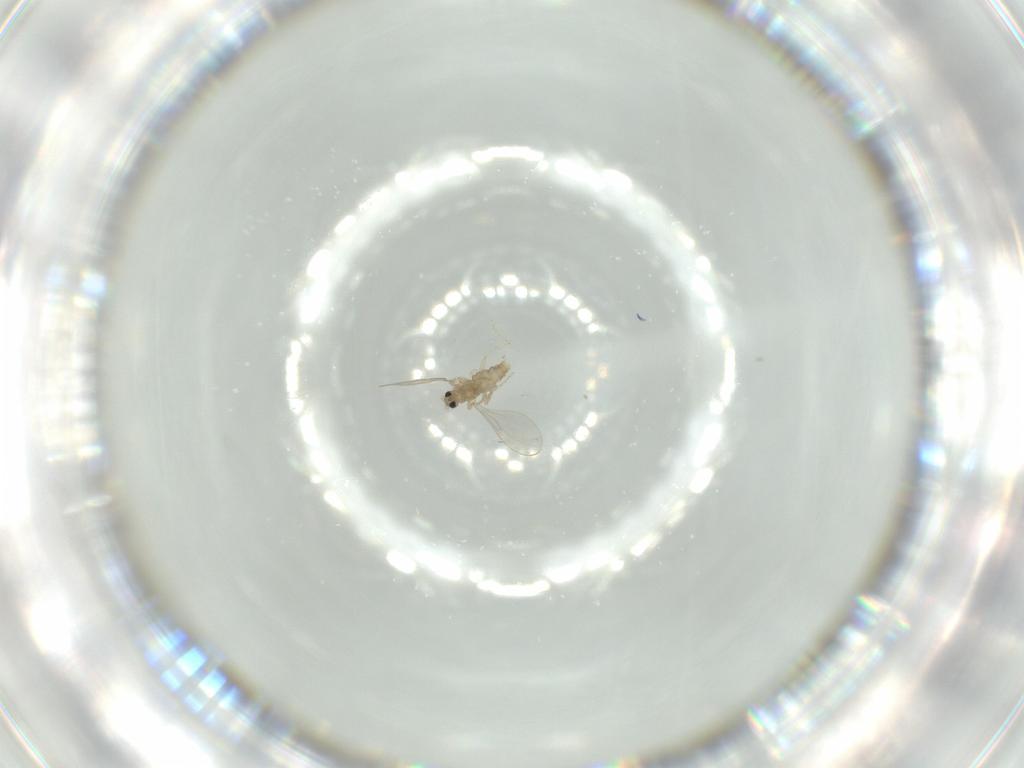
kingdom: Animalia
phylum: Arthropoda
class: Insecta
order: Diptera
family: Cecidomyiidae
